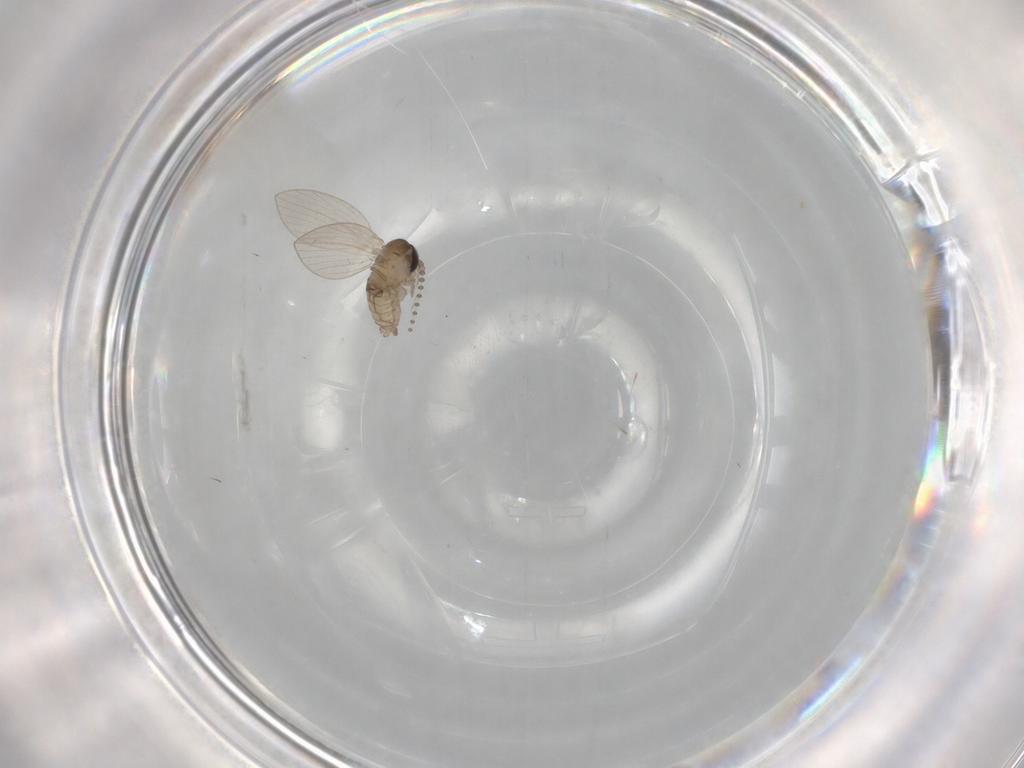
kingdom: Animalia
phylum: Arthropoda
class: Insecta
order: Diptera
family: Psychodidae
